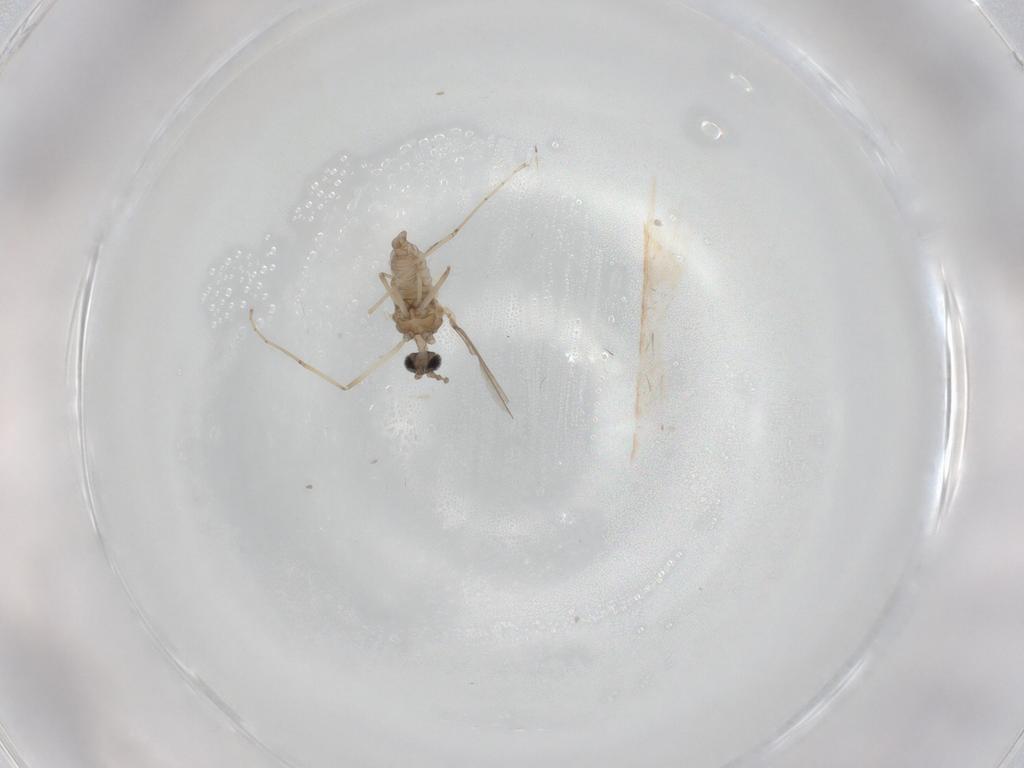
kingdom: Animalia
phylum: Arthropoda
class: Insecta
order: Diptera
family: Cecidomyiidae
